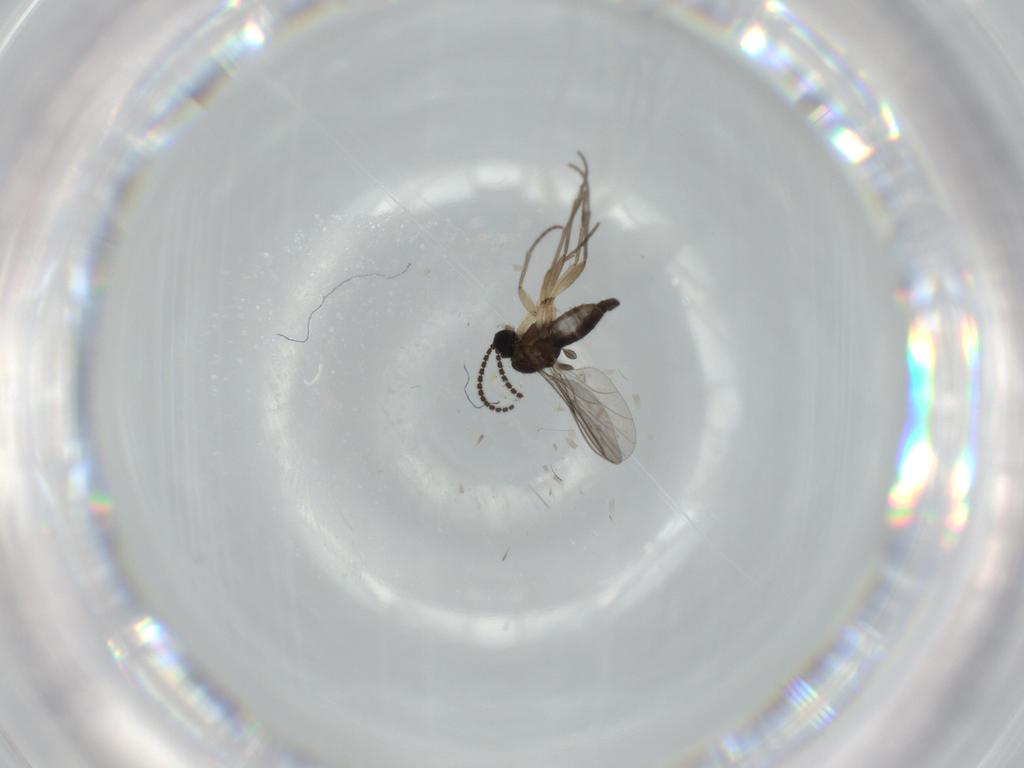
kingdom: Animalia
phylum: Arthropoda
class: Insecta
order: Diptera
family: Sciaridae
